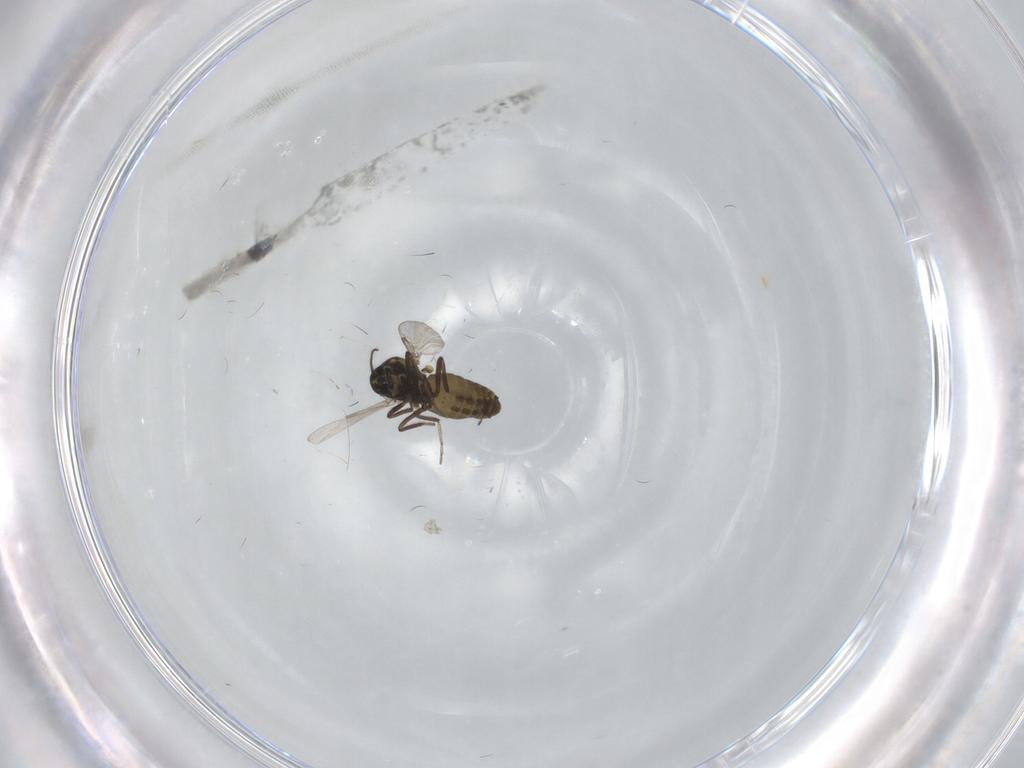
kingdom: Animalia
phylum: Arthropoda
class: Insecta
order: Diptera
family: Ceratopogonidae
